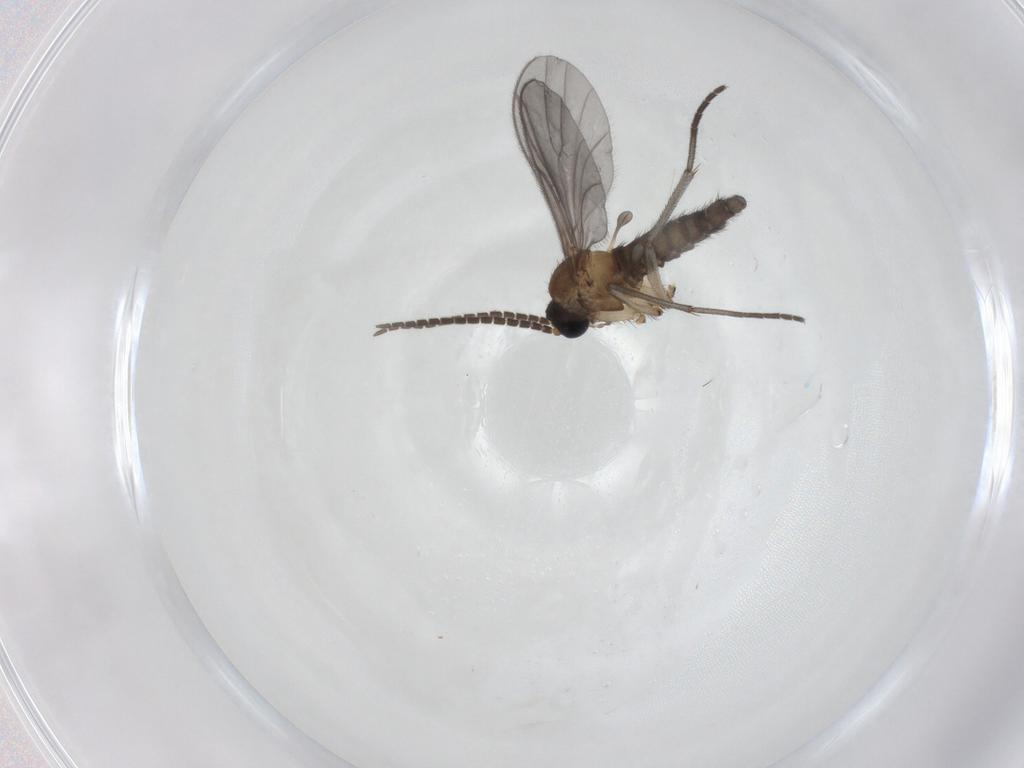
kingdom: Animalia
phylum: Arthropoda
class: Insecta
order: Diptera
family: Sciaridae
